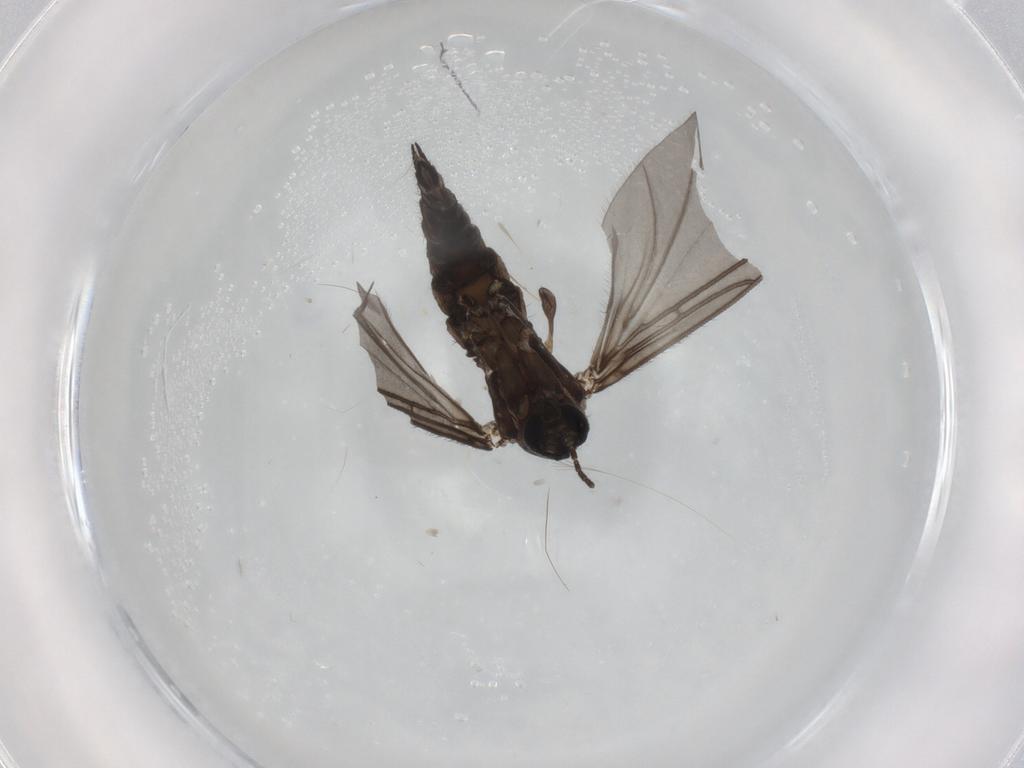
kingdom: Animalia
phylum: Arthropoda
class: Insecta
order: Diptera
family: Sciaridae
